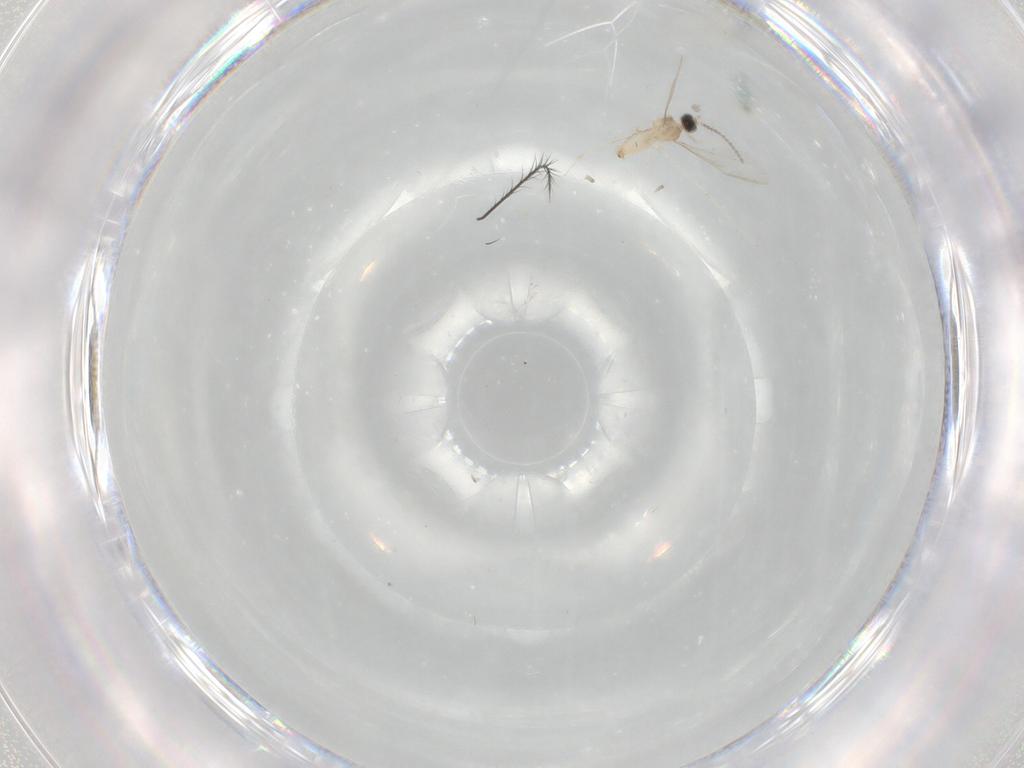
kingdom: Animalia
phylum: Arthropoda
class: Insecta
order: Diptera
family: Cecidomyiidae
